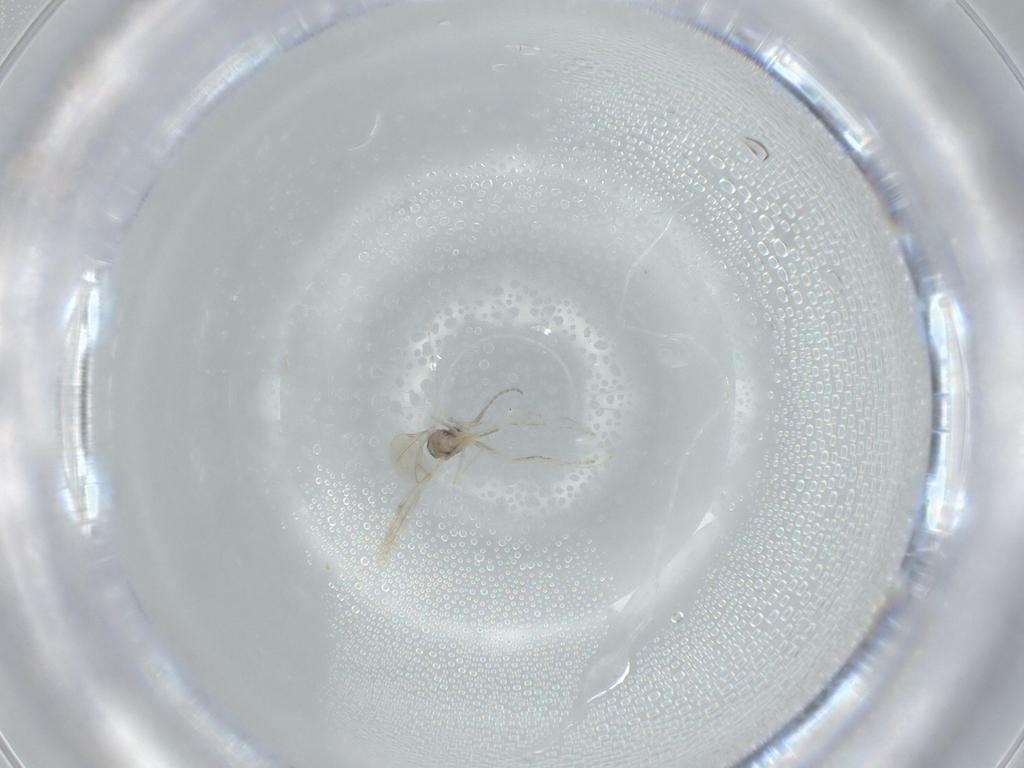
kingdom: Animalia
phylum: Arthropoda
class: Insecta
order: Diptera
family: Cecidomyiidae
